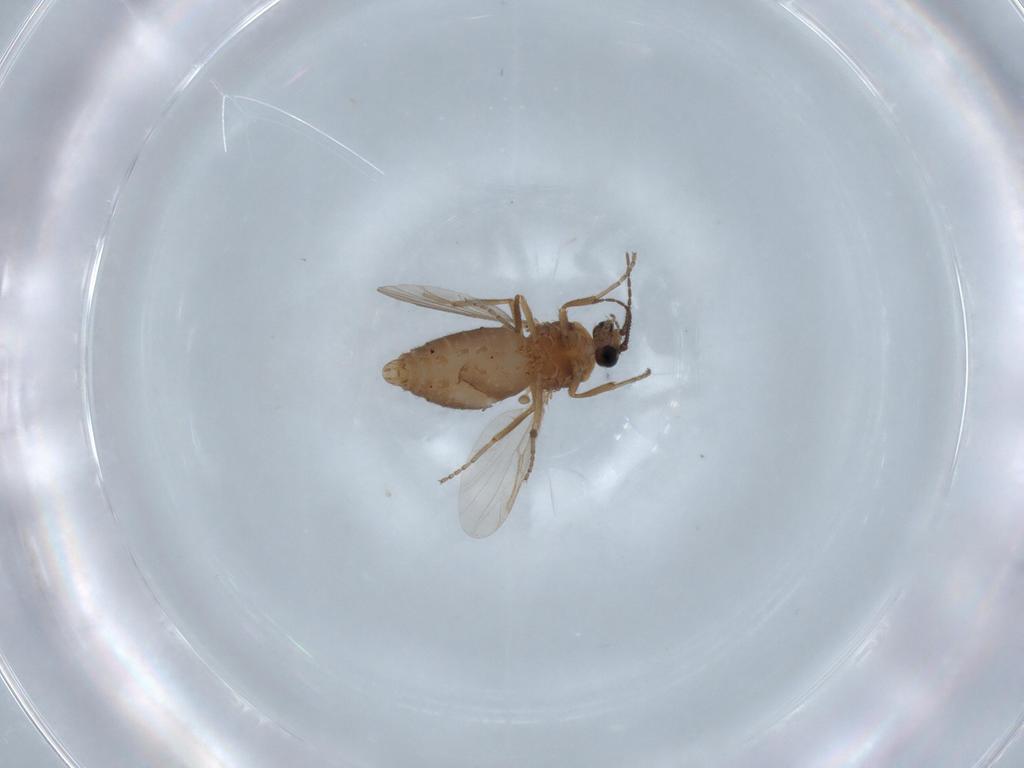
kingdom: Animalia
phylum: Arthropoda
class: Insecta
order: Diptera
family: Ceratopogonidae
